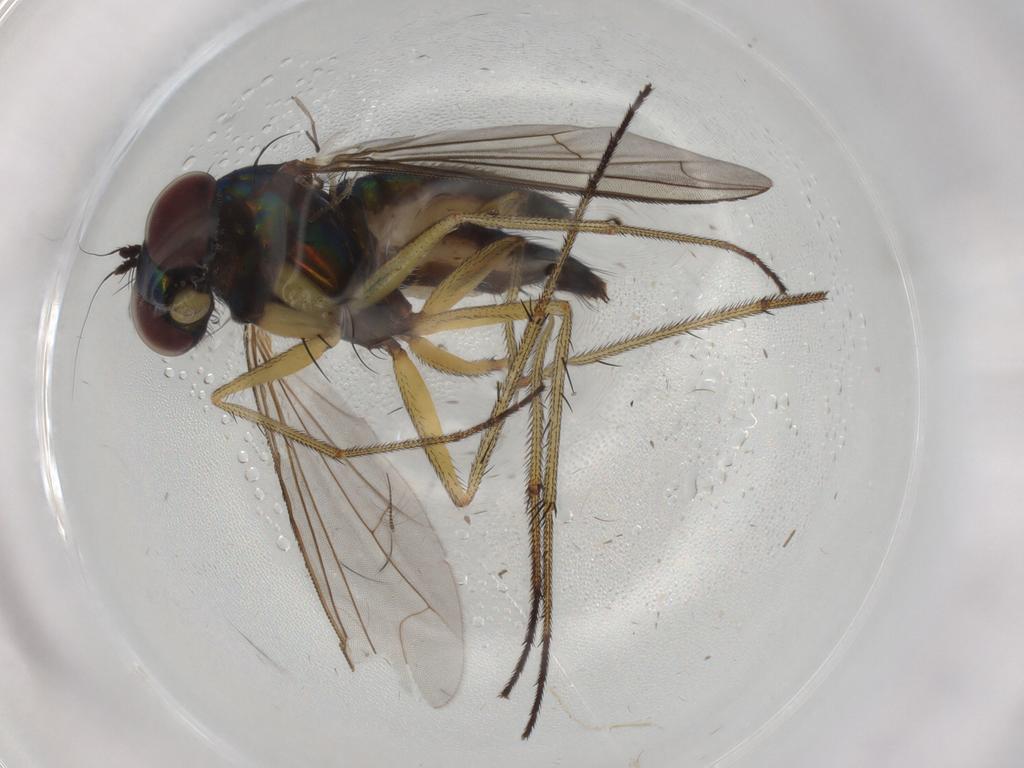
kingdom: Animalia
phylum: Arthropoda
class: Insecta
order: Diptera
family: Dolichopodidae
